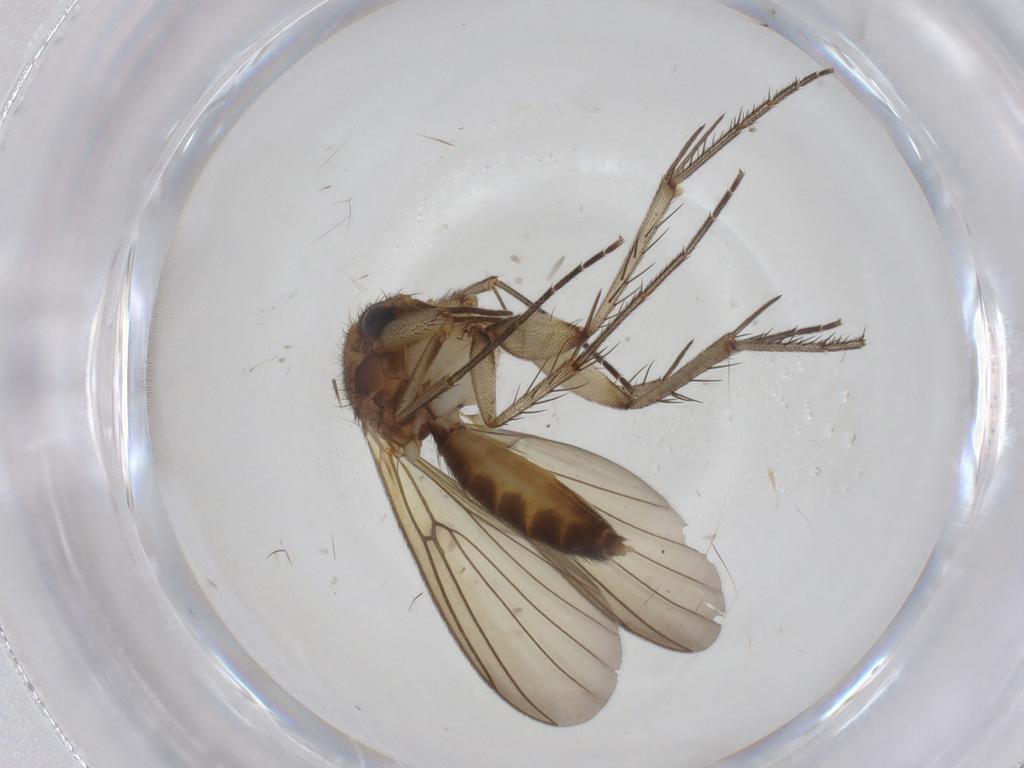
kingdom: Animalia
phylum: Arthropoda
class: Insecta
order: Diptera
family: Mycetophilidae
